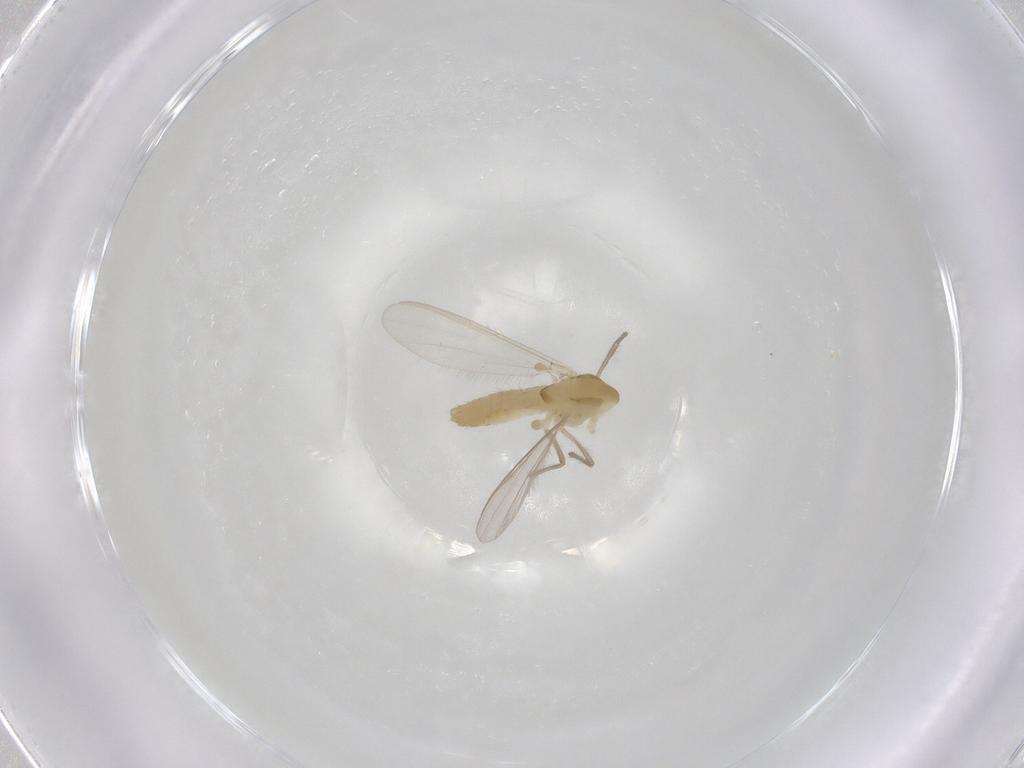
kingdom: Animalia
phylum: Arthropoda
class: Insecta
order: Diptera
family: Chironomidae
